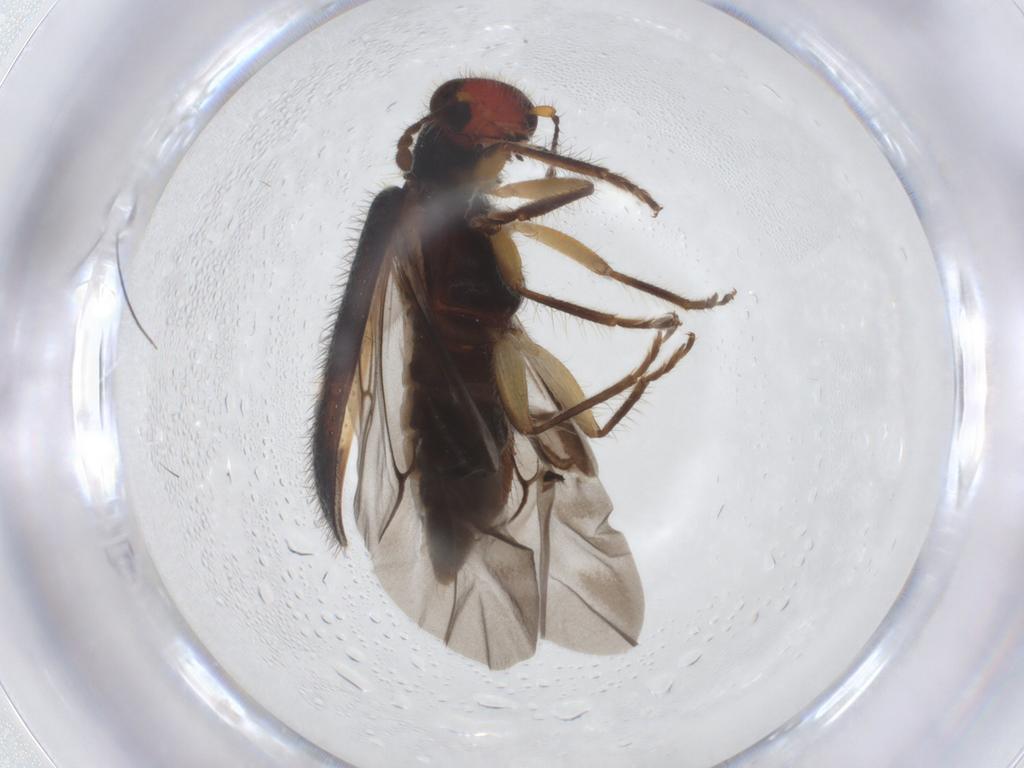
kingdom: Animalia
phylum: Arthropoda
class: Insecta
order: Coleoptera
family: Cleridae
